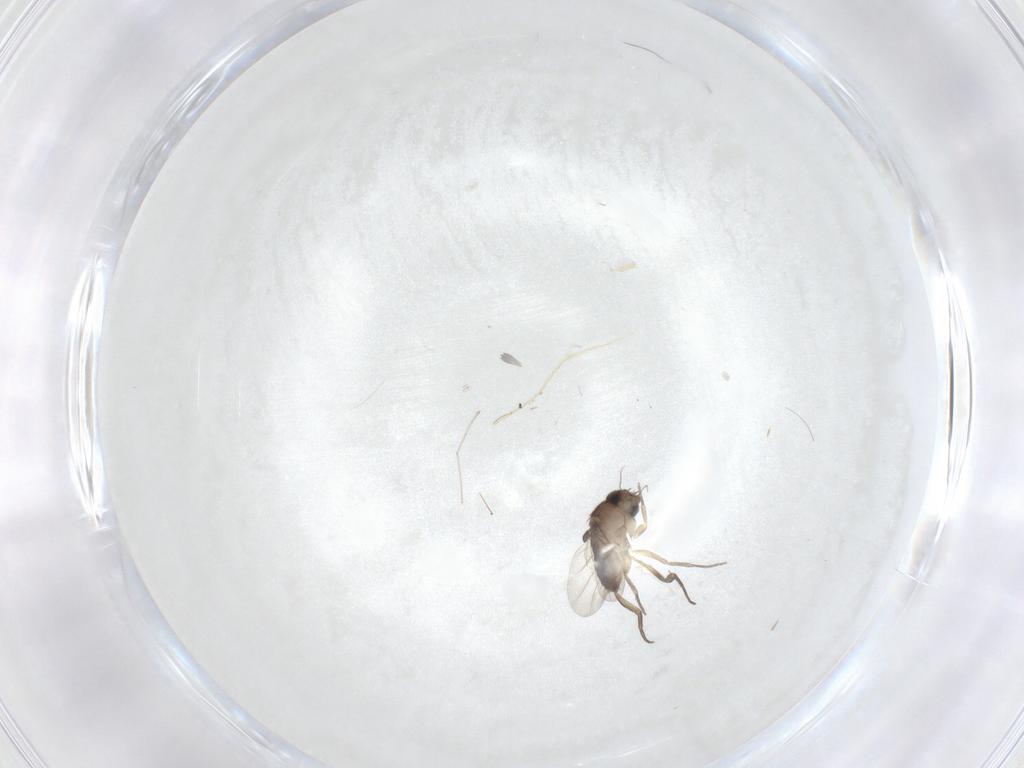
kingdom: Animalia
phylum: Arthropoda
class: Insecta
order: Diptera
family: Phoridae
